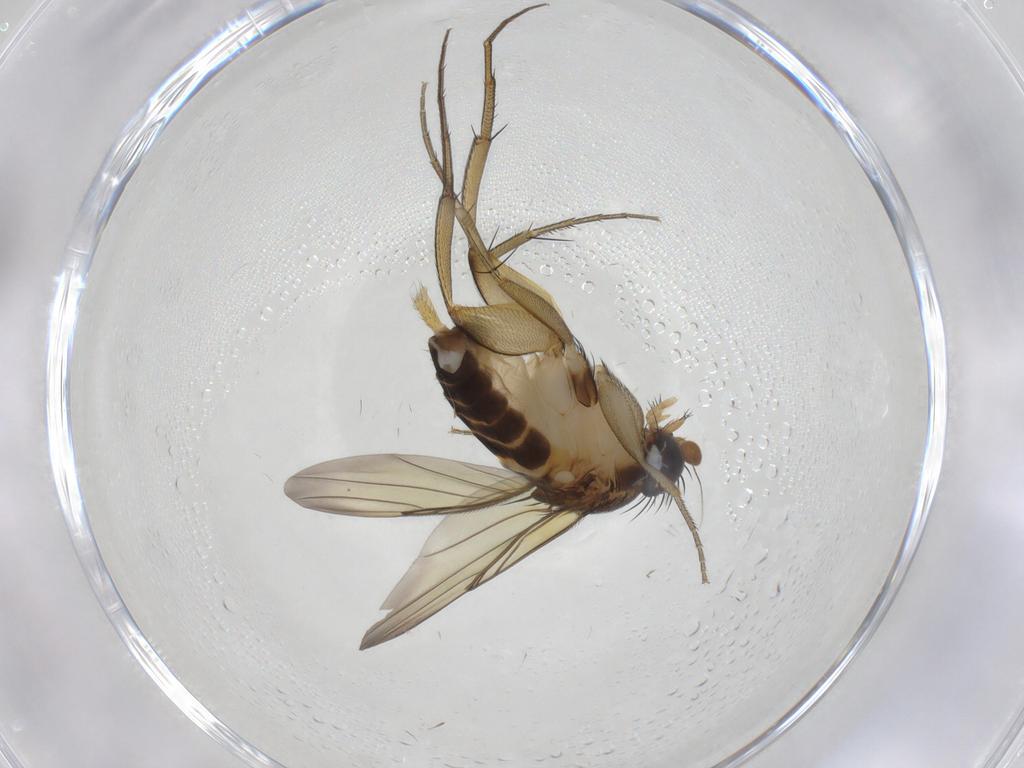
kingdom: Animalia
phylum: Arthropoda
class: Insecta
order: Diptera
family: Phoridae
